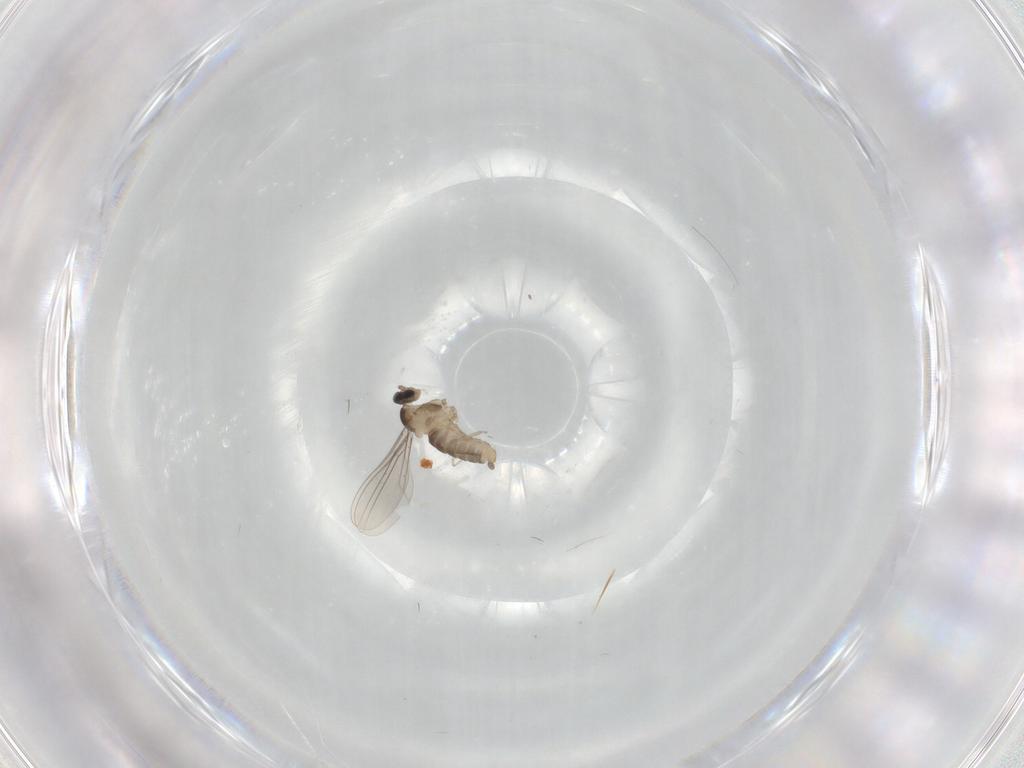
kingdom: Animalia
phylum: Arthropoda
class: Insecta
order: Diptera
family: Cecidomyiidae
